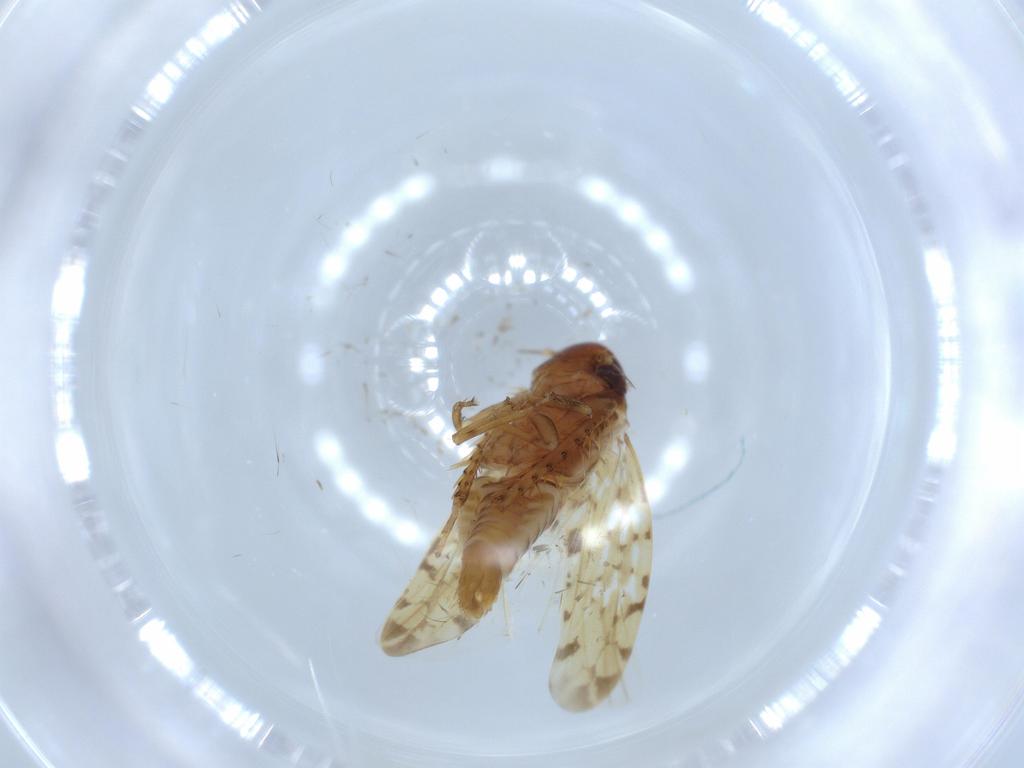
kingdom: Animalia
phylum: Arthropoda
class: Insecta
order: Hemiptera
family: Cicadellidae
